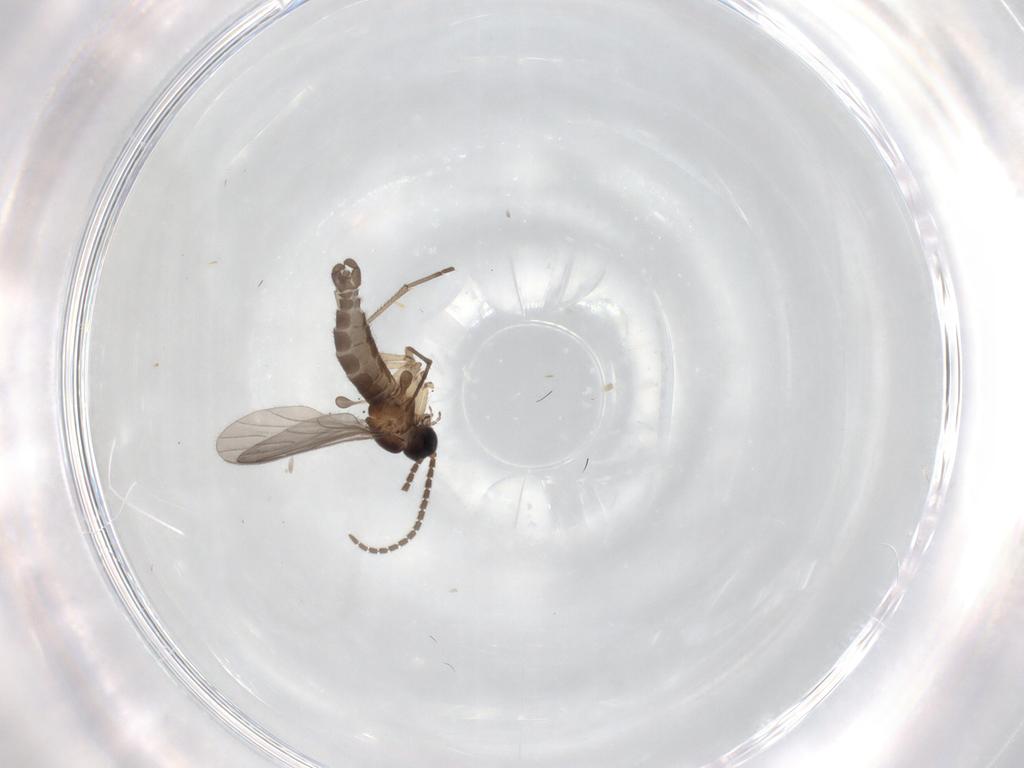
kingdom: Animalia
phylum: Arthropoda
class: Insecta
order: Diptera
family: Sciaridae
